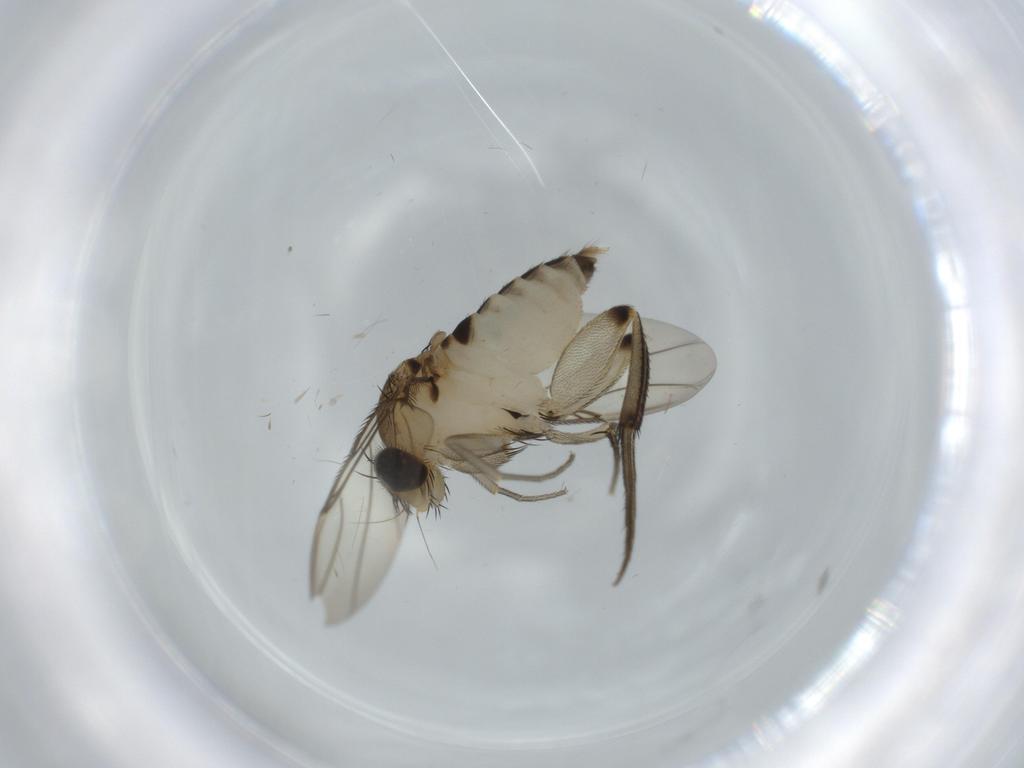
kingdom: Animalia
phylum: Arthropoda
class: Insecta
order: Diptera
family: Phoridae
